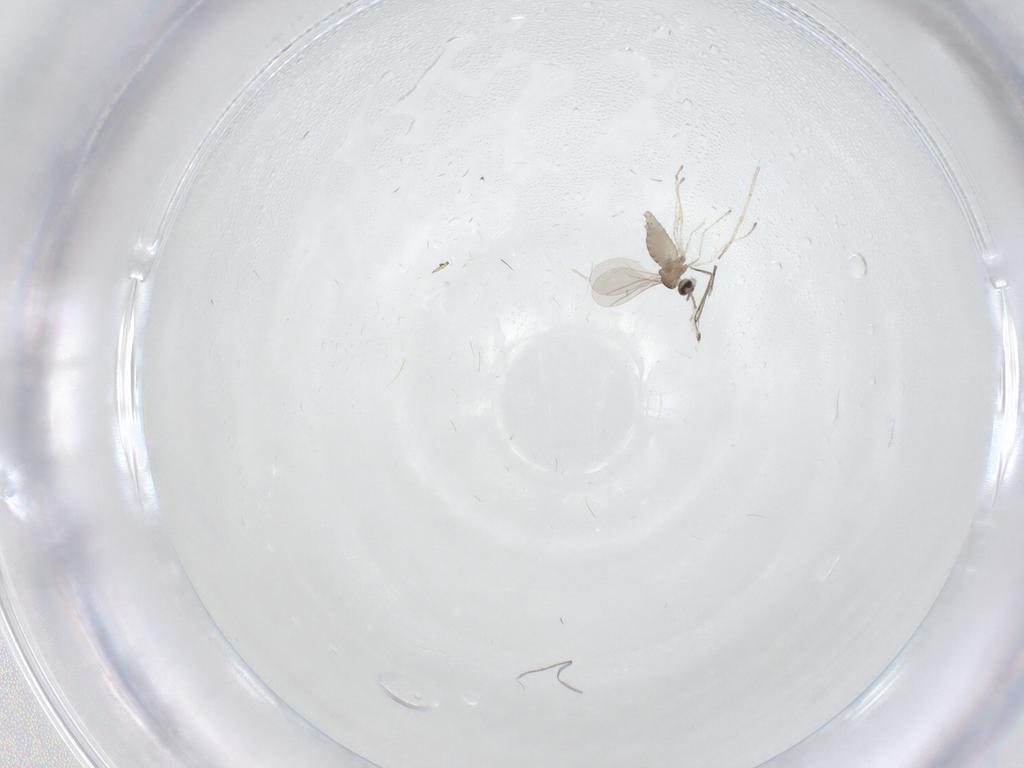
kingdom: Animalia
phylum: Arthropoda
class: Insecta
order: Diptera
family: Cecidomyiidae
